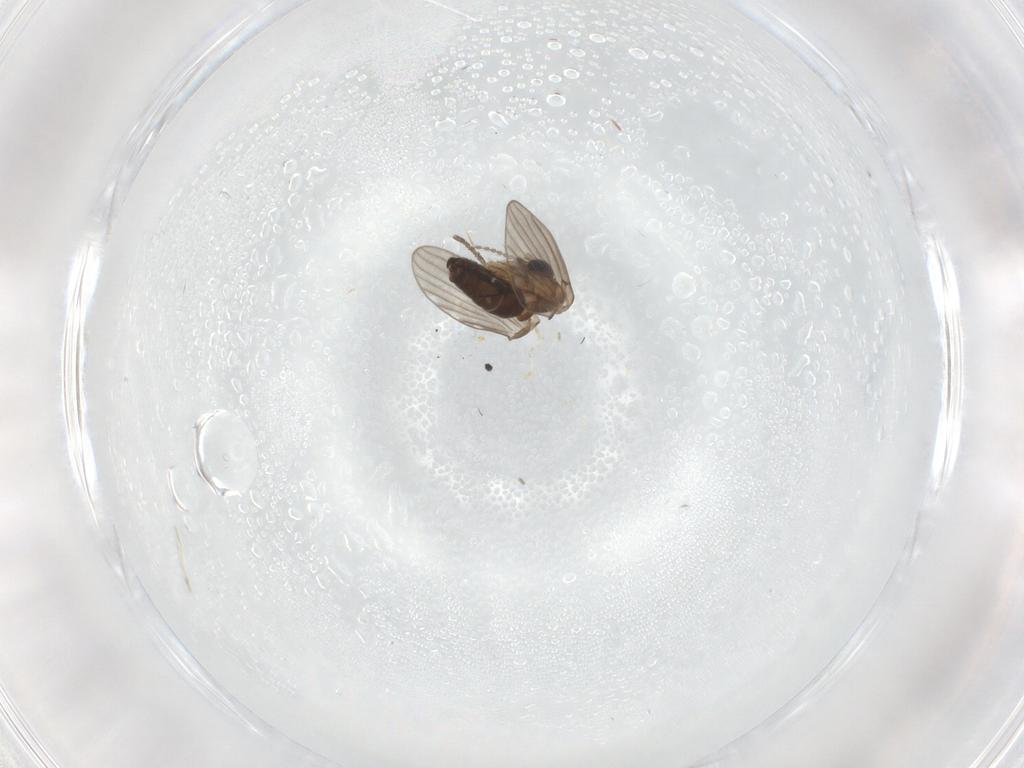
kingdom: Animalia
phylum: Arthropoda
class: Insecta
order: Diptera
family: Psychodidae
